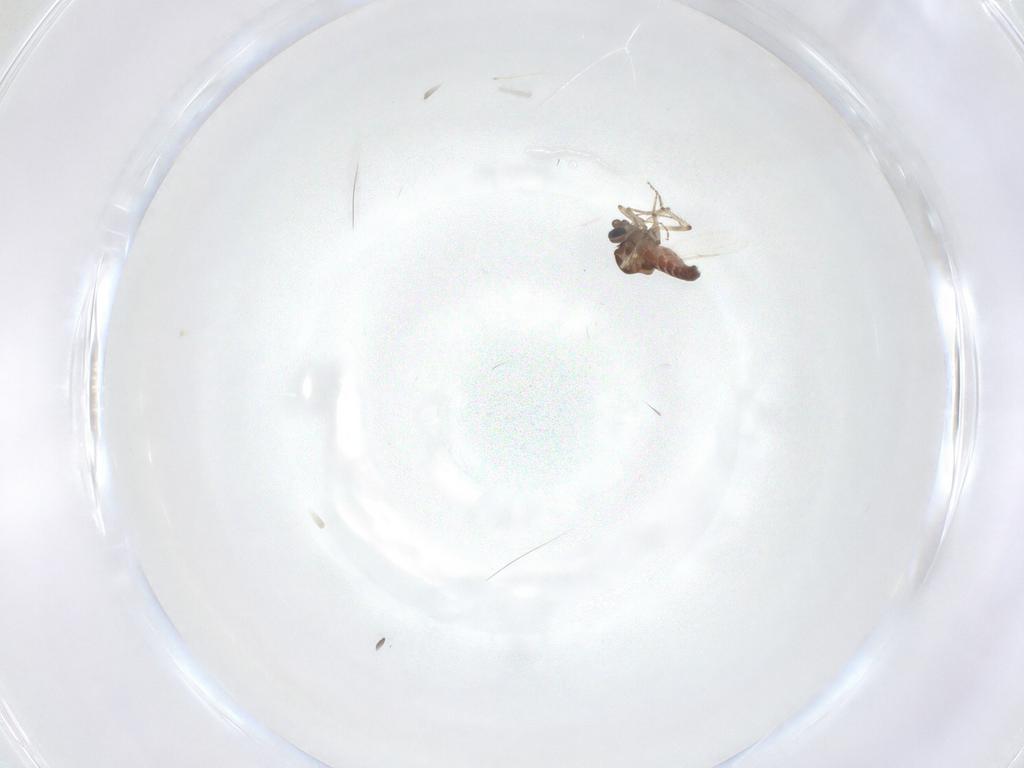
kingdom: Animalia
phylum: Arthropoda
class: Insecta
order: Diptera
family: Ceratopogonidae
